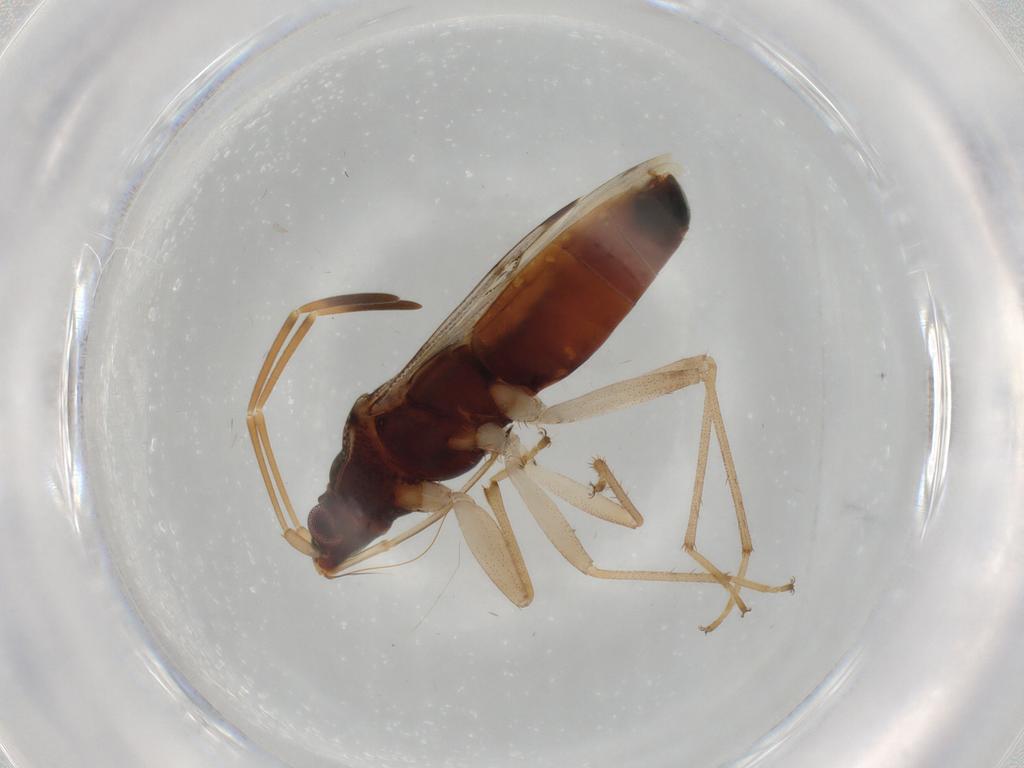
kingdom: Animalia
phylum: Arthropoda
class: Insecta
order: Hemiptera
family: Rhyparochromidae
